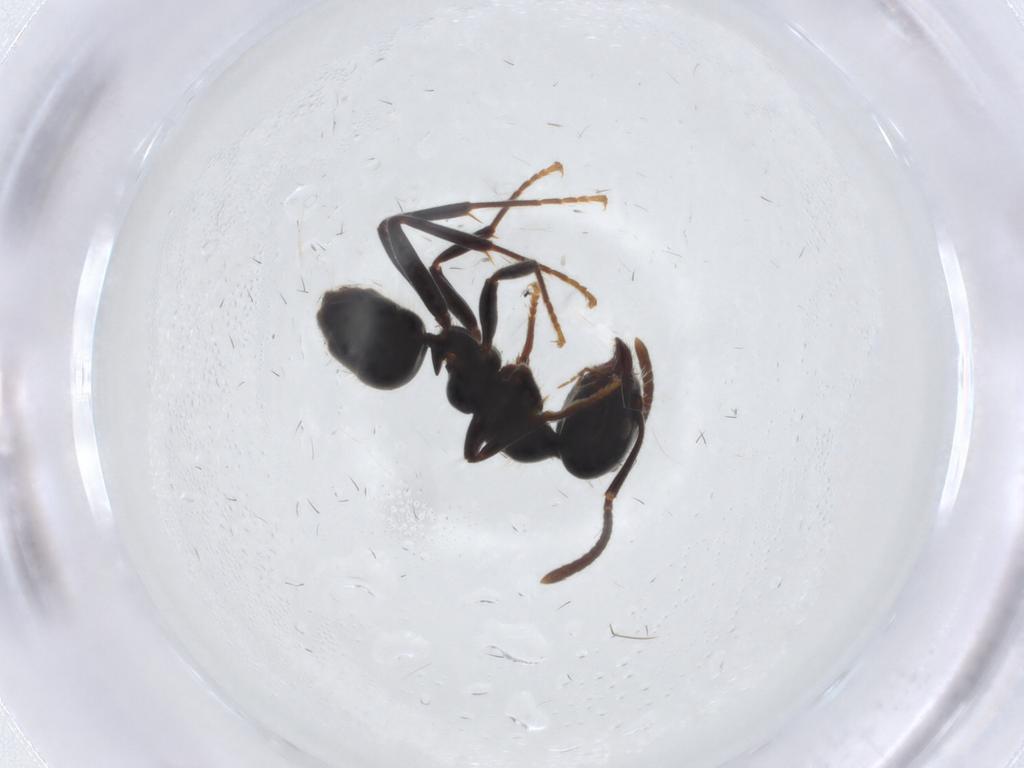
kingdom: Animalia
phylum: Arthropoda
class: Insecta
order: Hymenoptera
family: Formicidae
